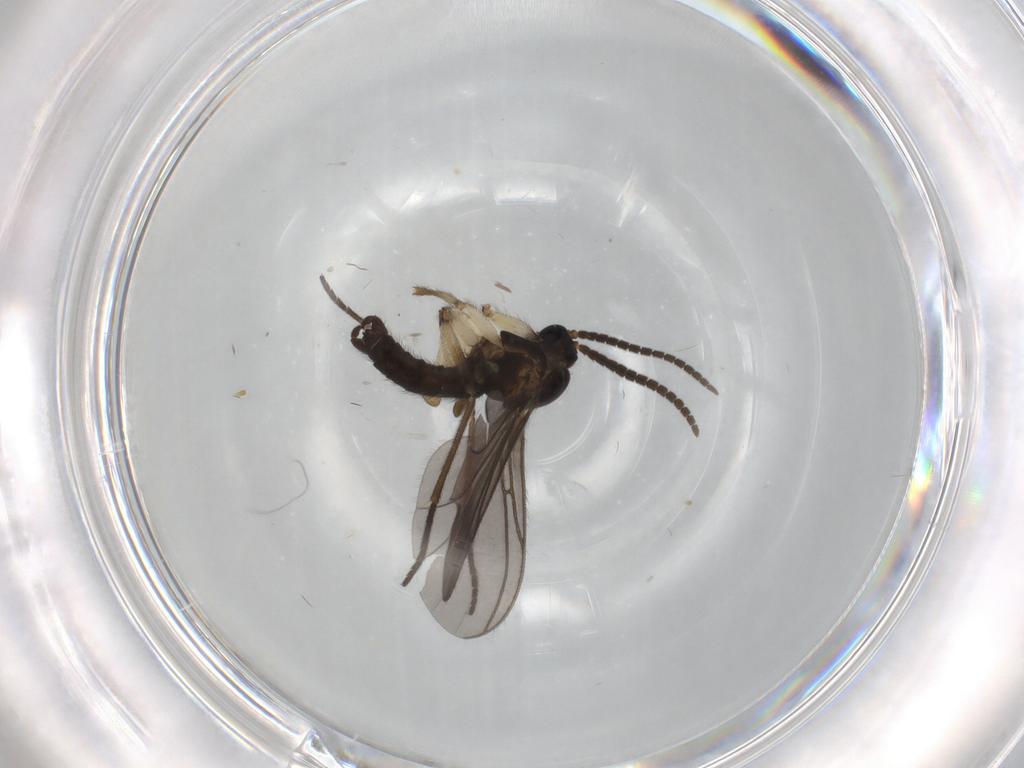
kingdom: Animalia
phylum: Arthropoda
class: Insecta
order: Diptera
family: Sciaridae
